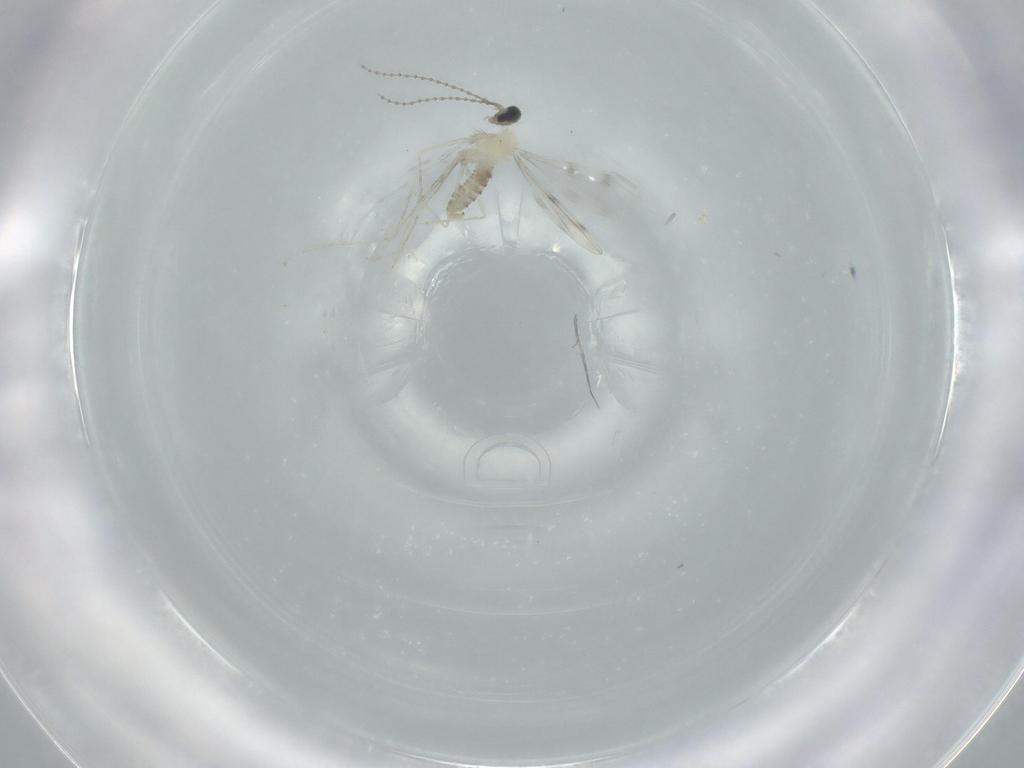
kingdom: Animalia
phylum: Arthropoda
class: Insecta
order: Diptera
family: Cecidomyiidae
